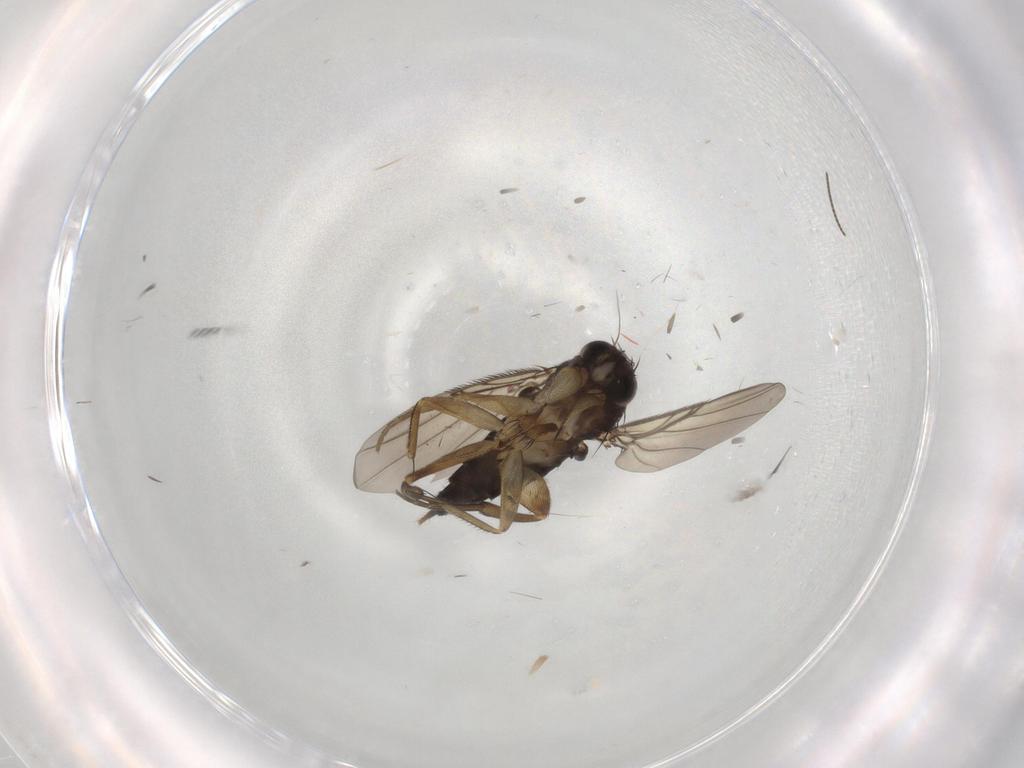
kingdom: Animalia
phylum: Arthropoda
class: Insecta
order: Diptera
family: Phoridae
